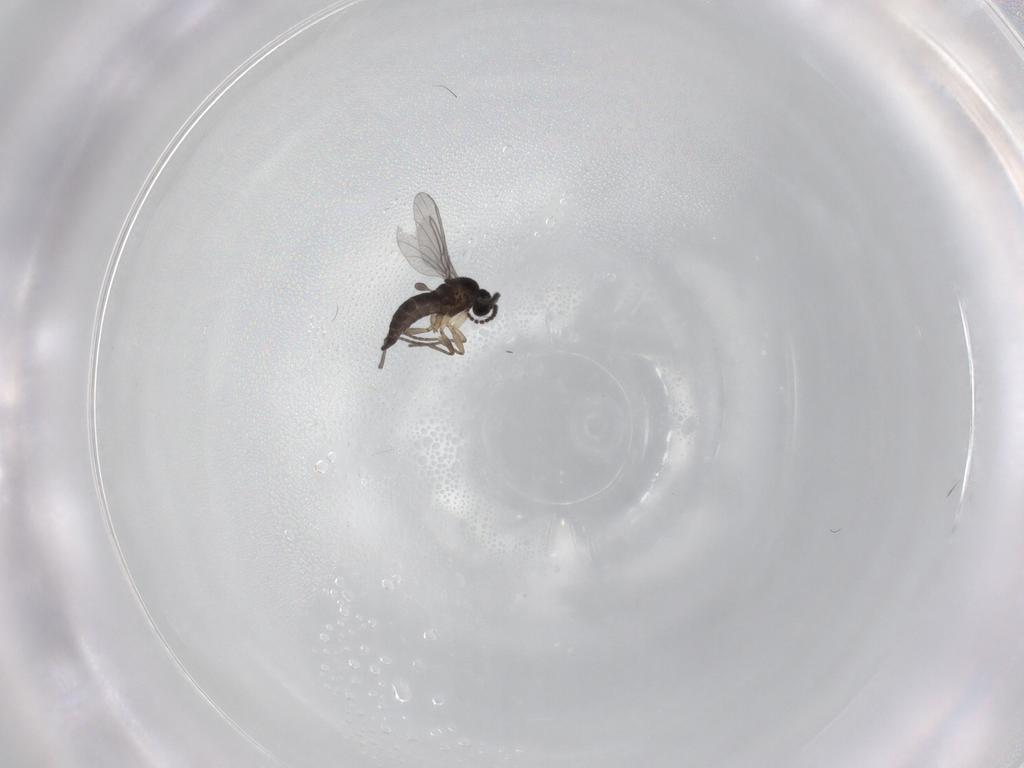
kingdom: Animalia
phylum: Arthropoda
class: Insecta
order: Diptera
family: Sciaridae
